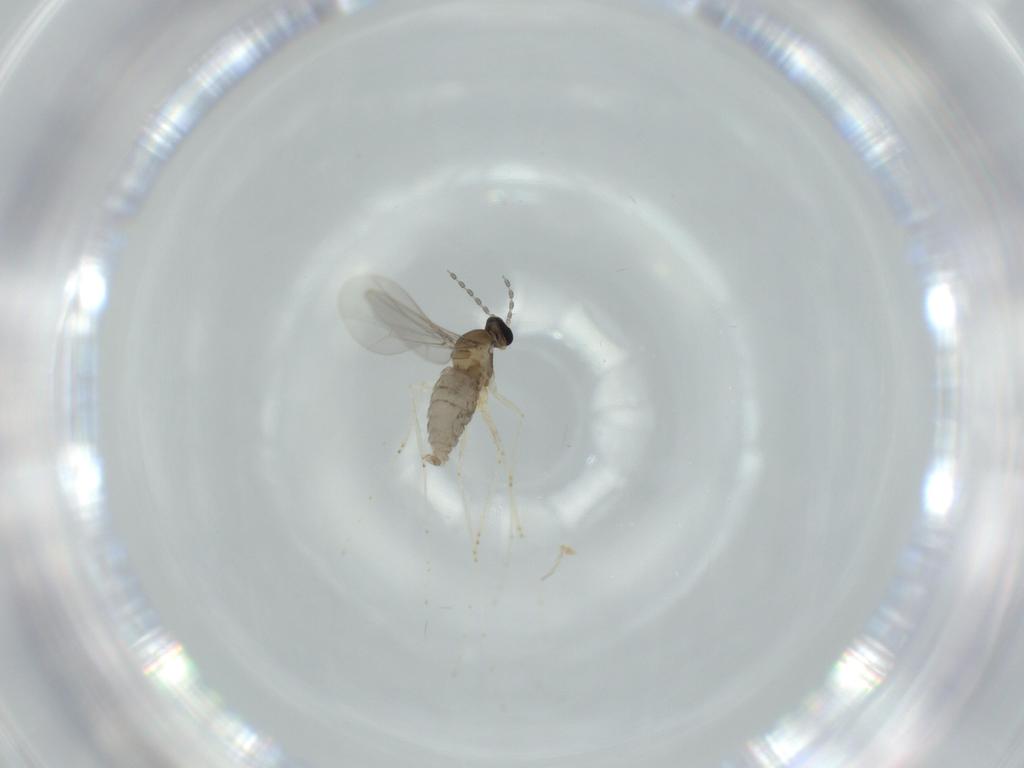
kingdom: Animalia
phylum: Arthropoda
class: Insecta
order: Diptera
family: Cecidomyiidae
